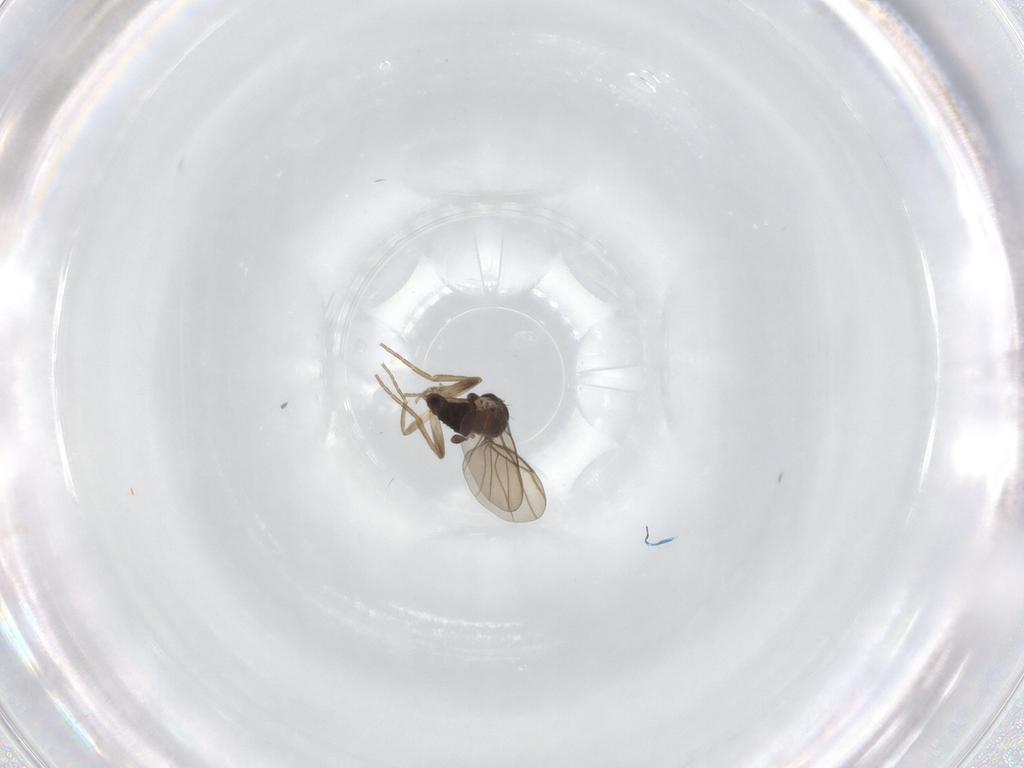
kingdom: Animalia
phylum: Arthropoda
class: Insecta
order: Diptera
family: Phoridae
